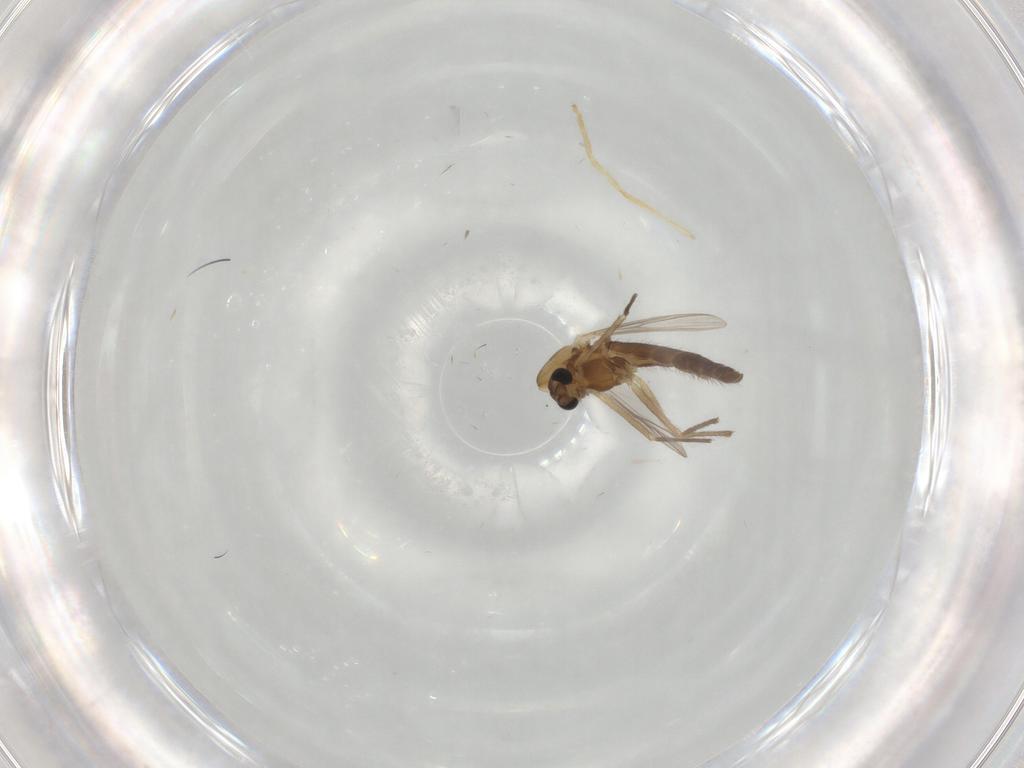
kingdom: Animalia
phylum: Arthropoda
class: Insecta
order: Diptera
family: Chironomidae
